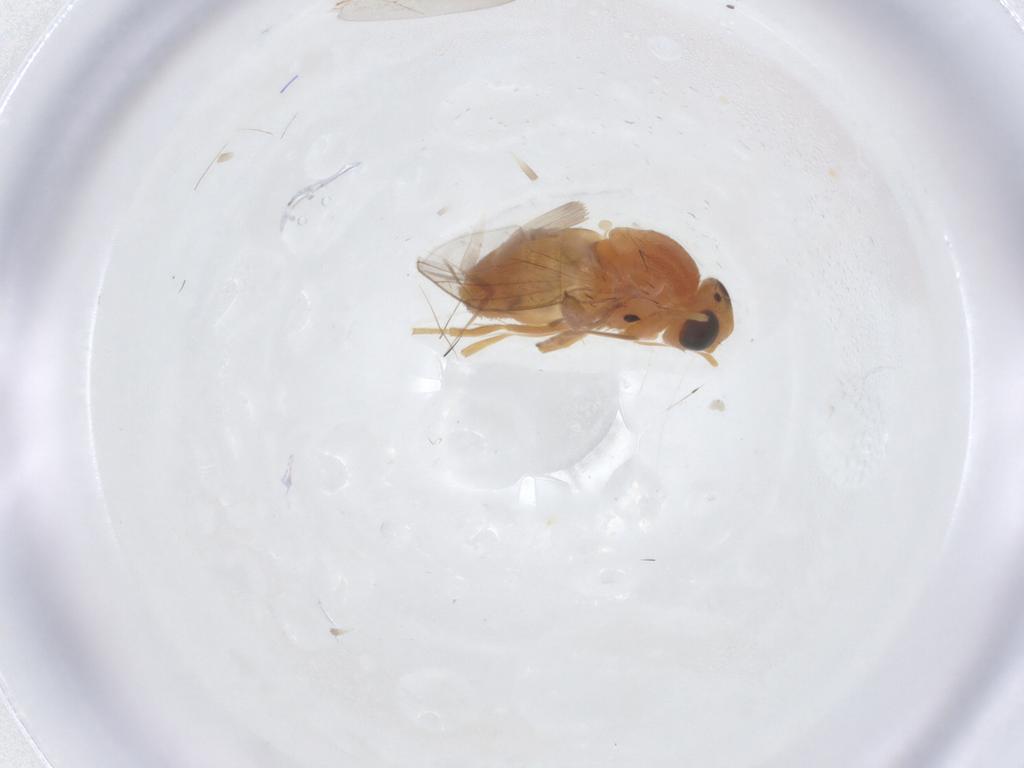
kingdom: Animalia
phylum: Arthropoda
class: Insecta
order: Diptera
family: Chloropidae
